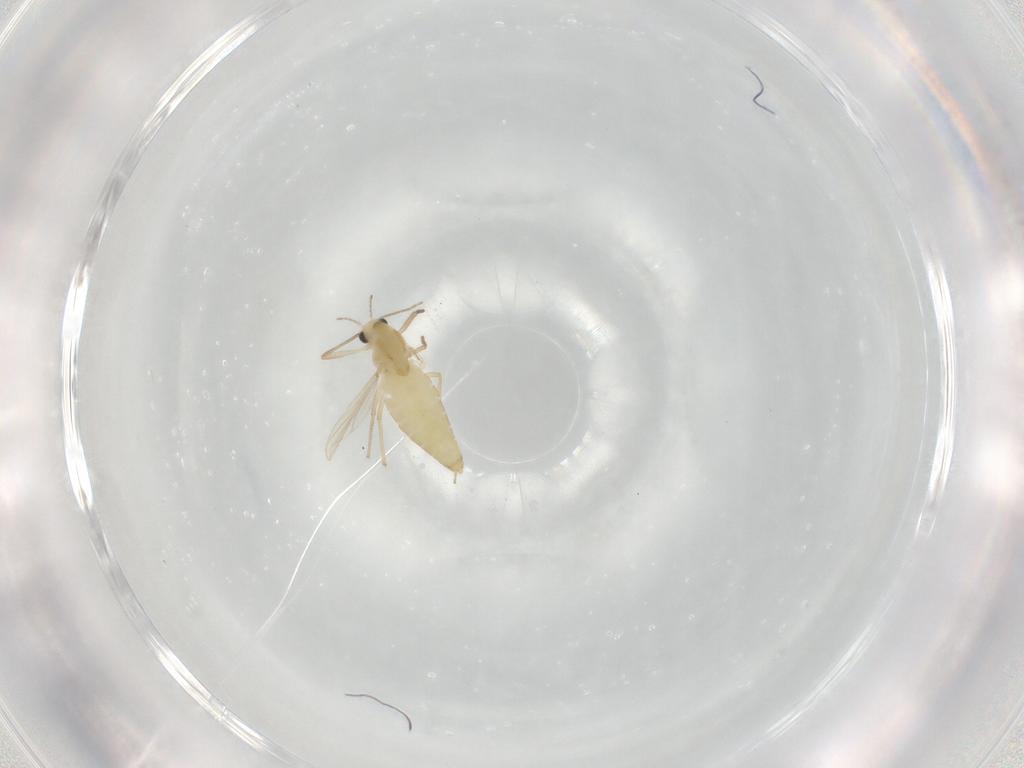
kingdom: Animalia
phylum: Arthropoda
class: Insecta
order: Diptera
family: Chironomidae
